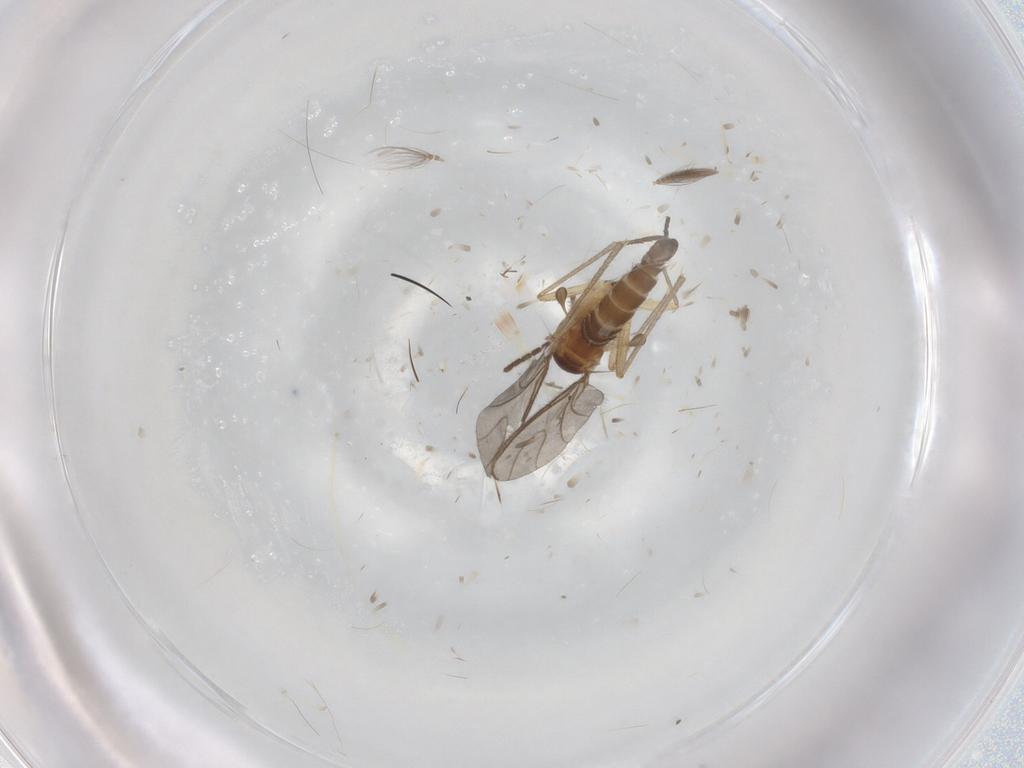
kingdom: Animalia
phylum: Arthropoda
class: Insecta
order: Diptera
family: Sciaridae
